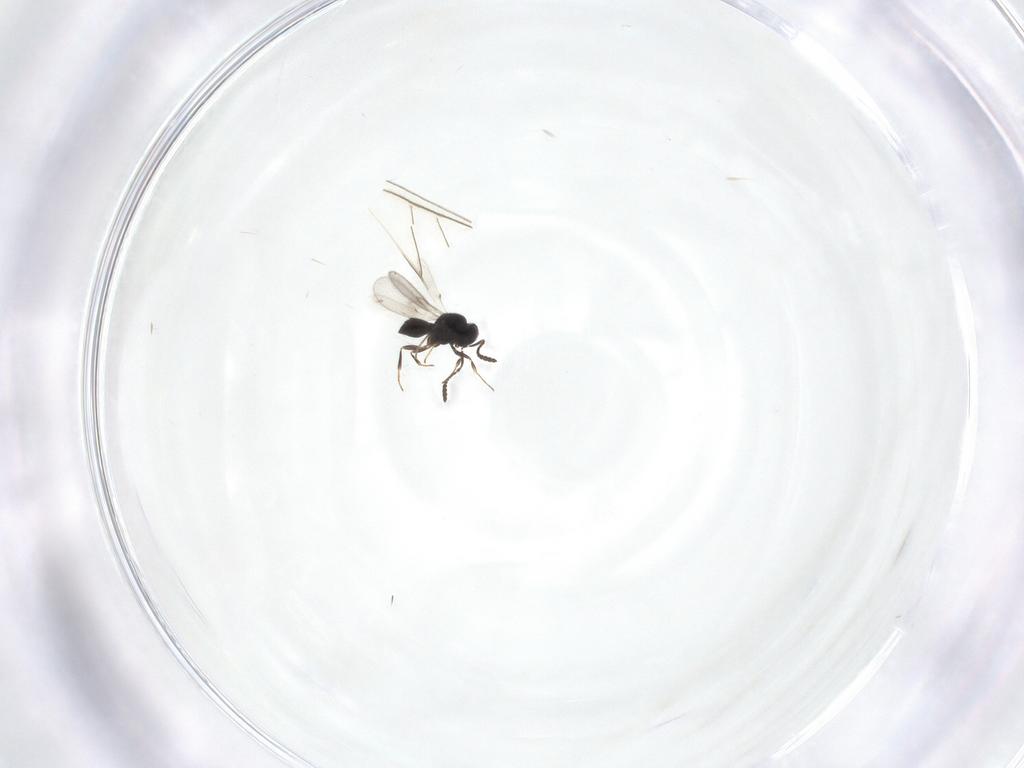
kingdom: Animalia
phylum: Arthropoda
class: Insecta
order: Hymenoptera
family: Scelionidae
